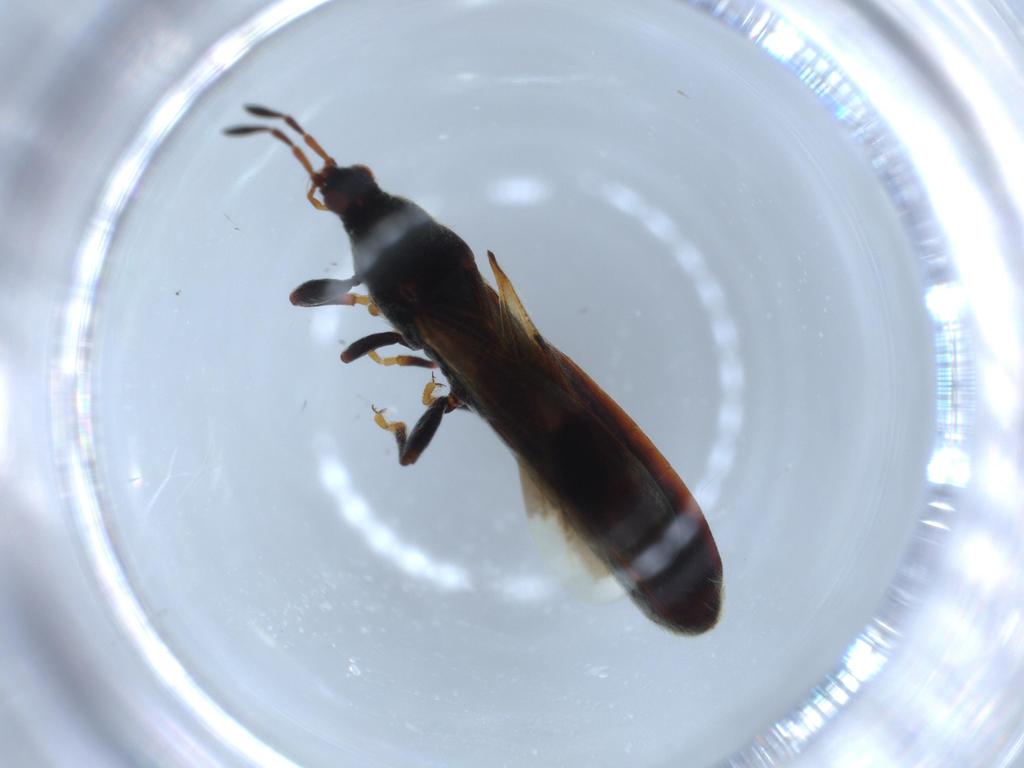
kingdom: Animalia
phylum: Arthropoda
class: Insecta
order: Hemiptera
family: Blissidae
